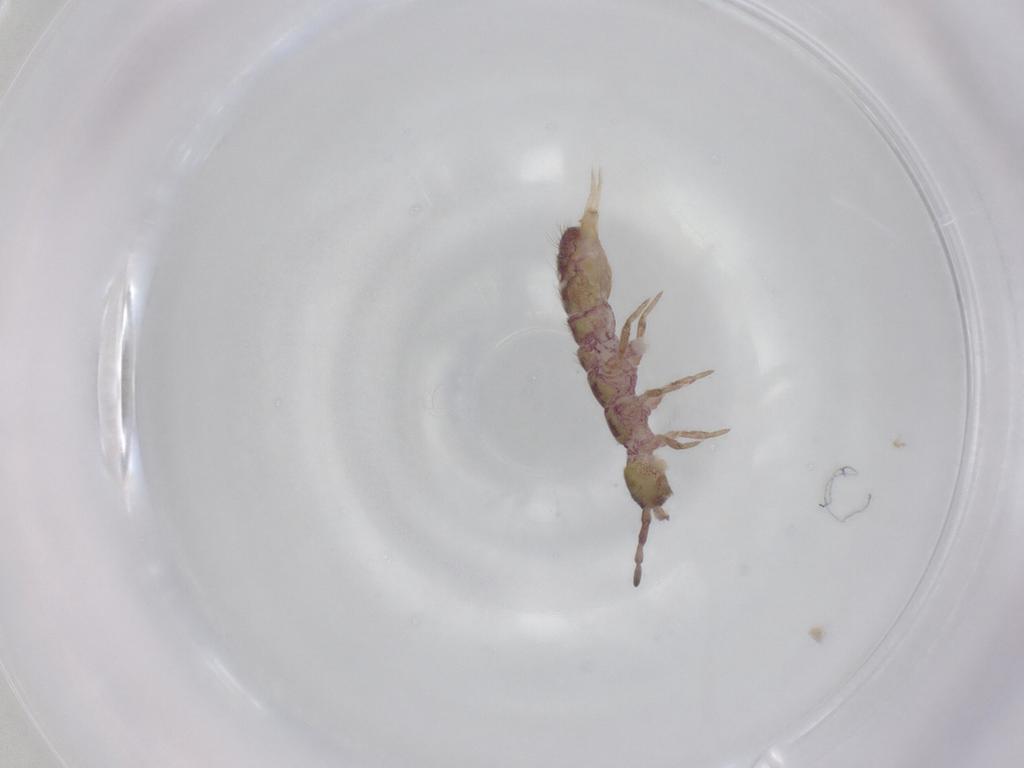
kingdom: Animalia
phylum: Arthropoda
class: Collembola
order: Entomobryomorpha
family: Isotomidae
